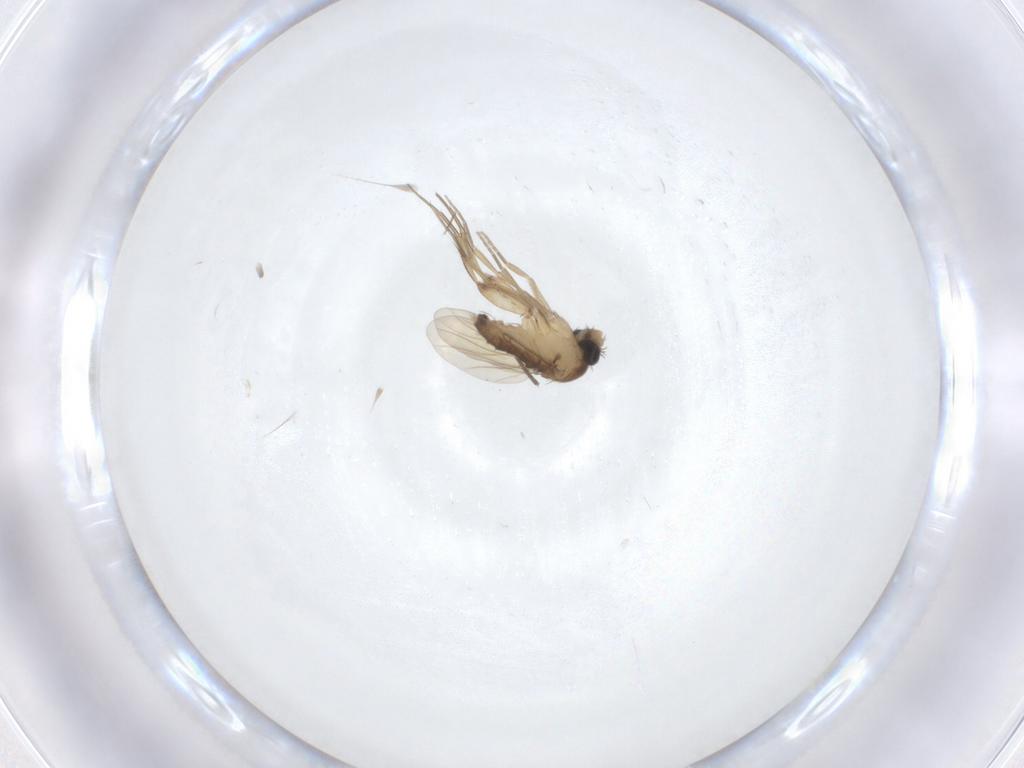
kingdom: Animalia
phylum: Arthropoda
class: Insecta
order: Diptera
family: Phoridae
